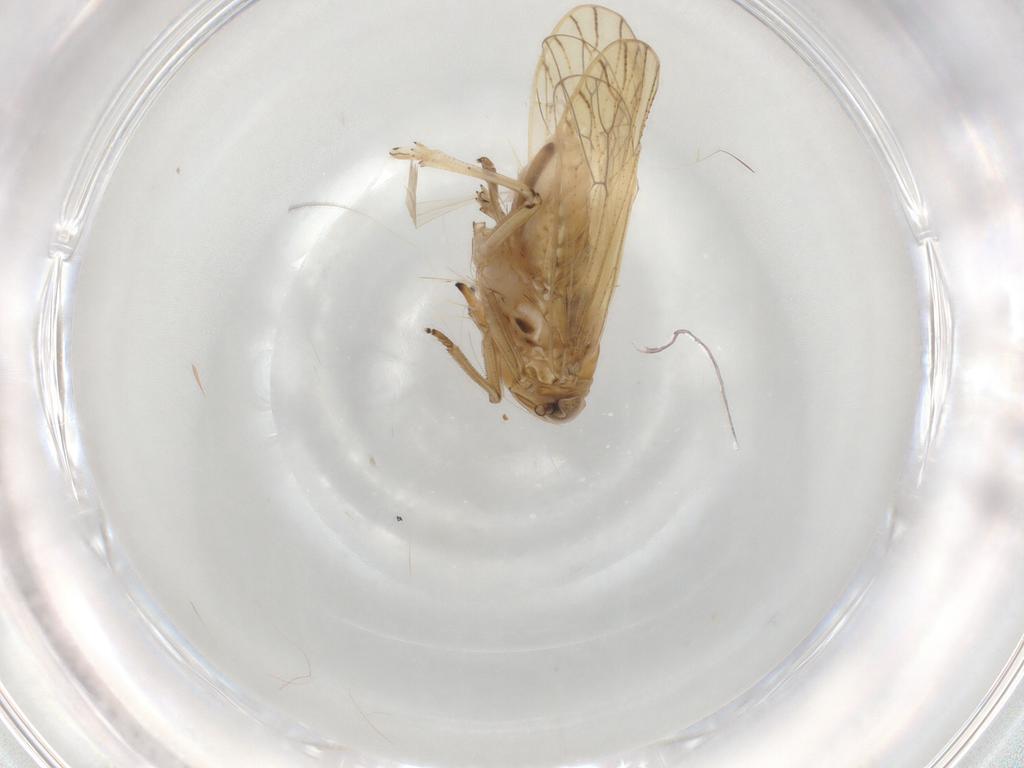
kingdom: Animalia
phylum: Arthropoda
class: Insecta
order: Hemiptera
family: Delphacidae
